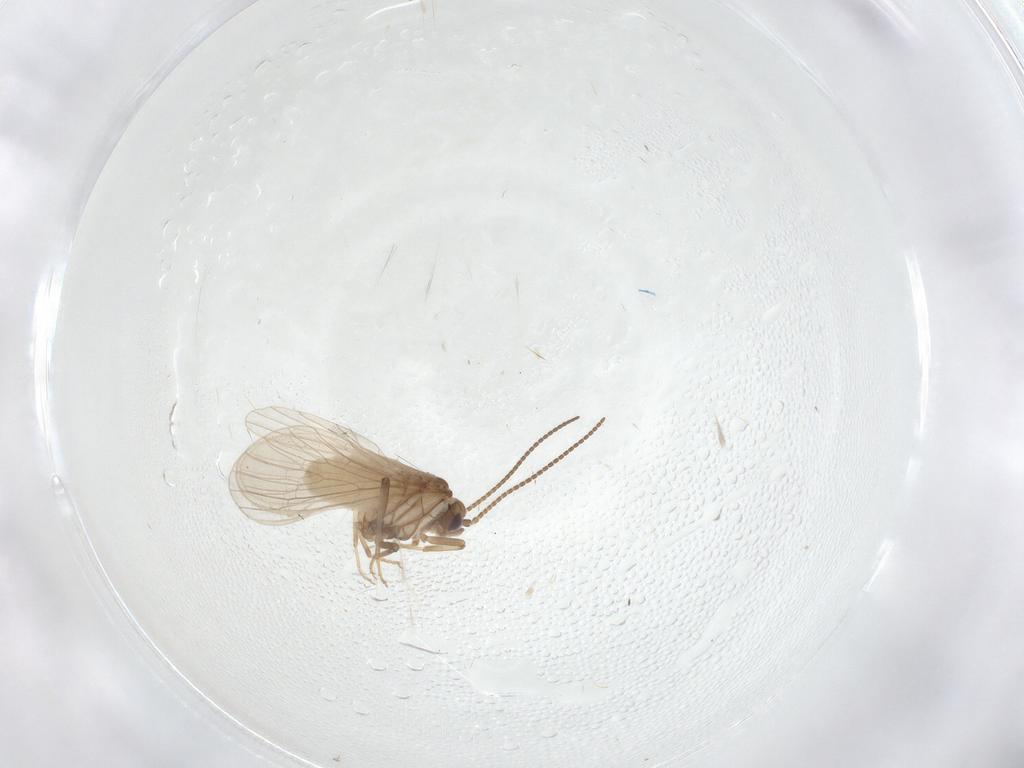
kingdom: Animalia
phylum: Arthropoda
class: Insecta
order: Neuroptera
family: Coniopterygidae
